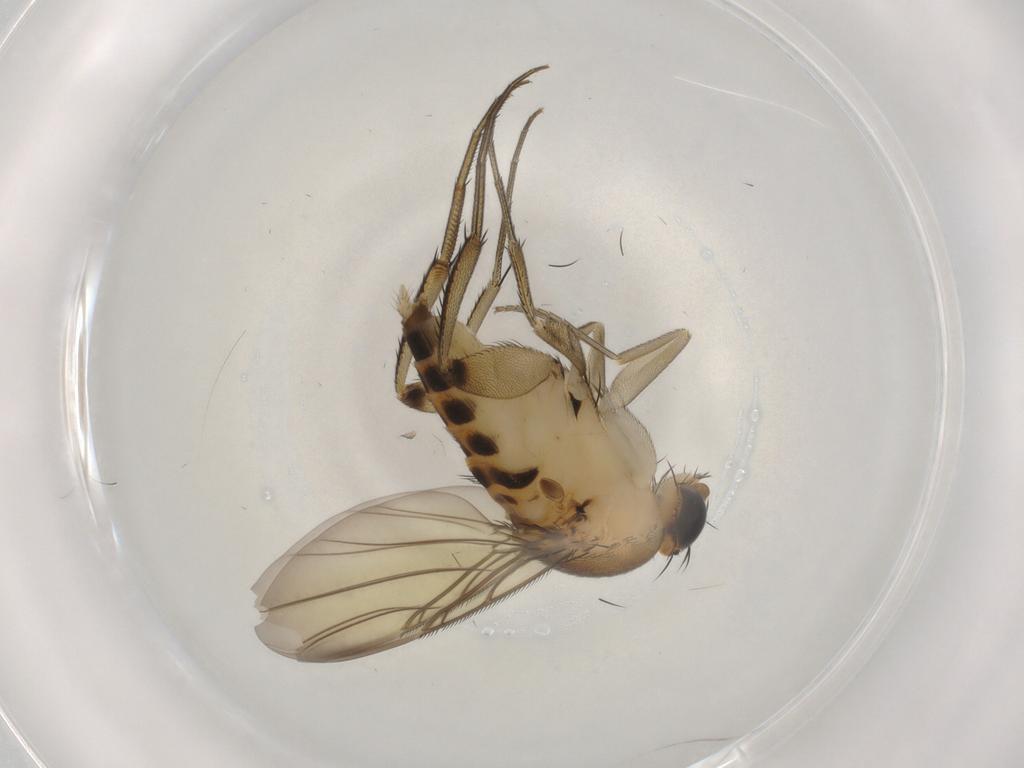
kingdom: Animalia
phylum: Arthropoda
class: Insecta
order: Diptera
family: Phoridae
